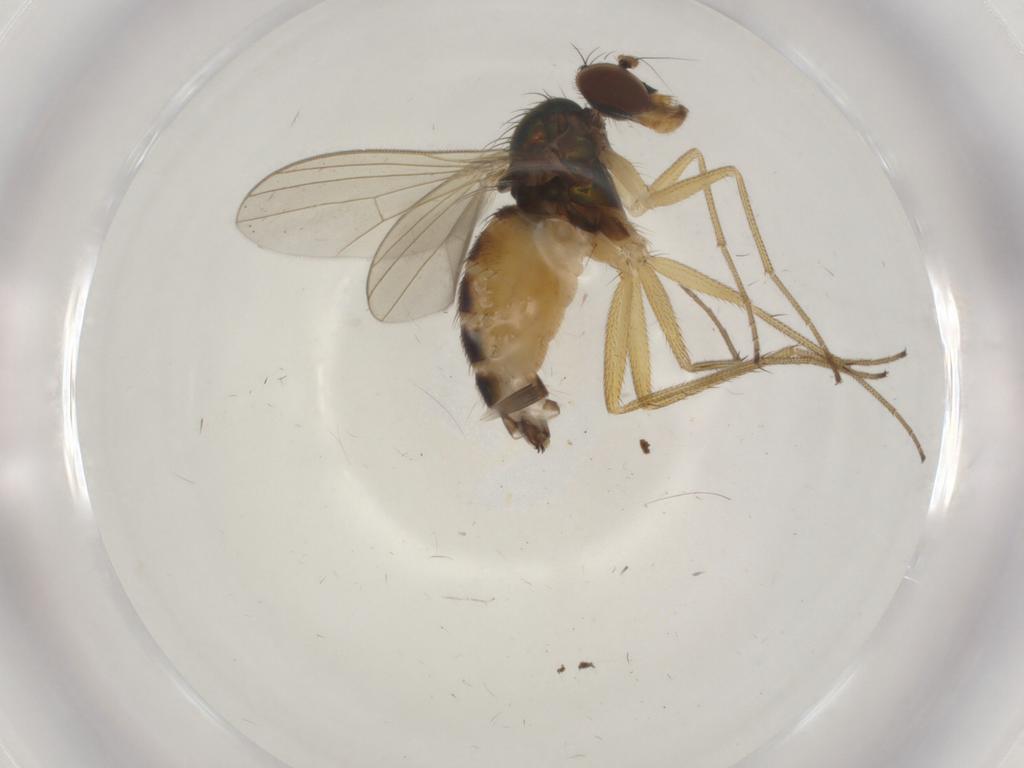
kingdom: Animalia
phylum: Arthropoda
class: Insecta
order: Diptera
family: Dolichopodidae
